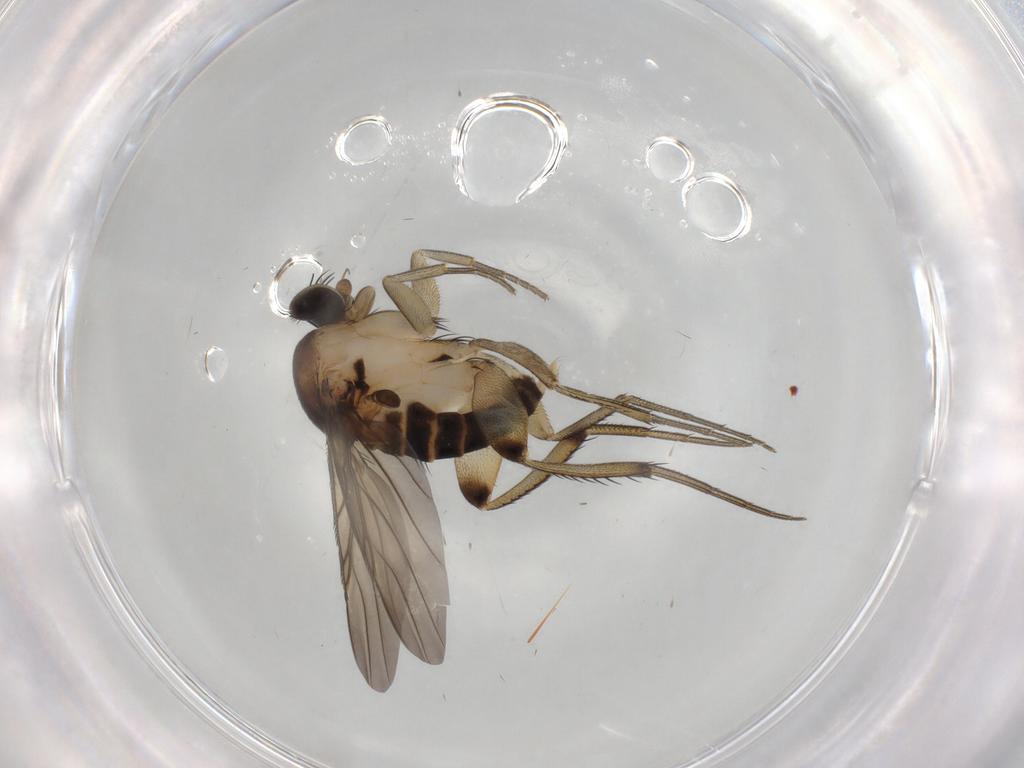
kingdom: Animalia
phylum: Arthropoda
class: Insecta
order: Diptera
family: Phoridae
